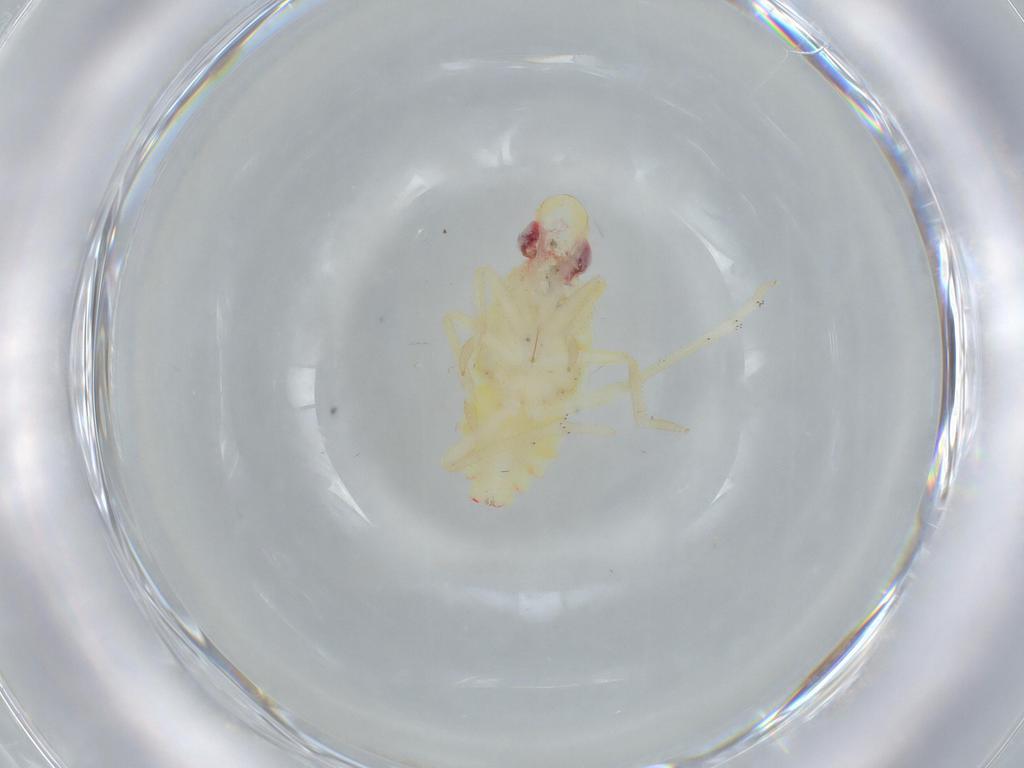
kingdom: Animalia
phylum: Arthropoda
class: Insecta
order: Hemiptera
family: Tropiduchidae
